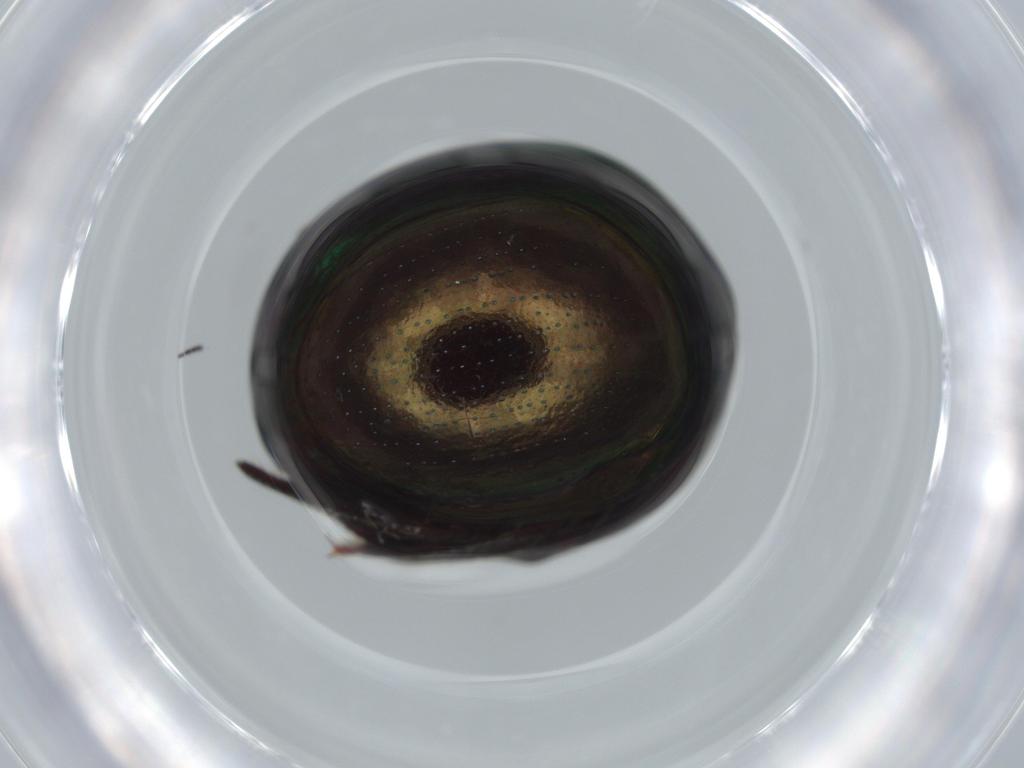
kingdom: Animalia
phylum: Arthropoda
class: Insecta
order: Coleoptera
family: Hybosoridae
